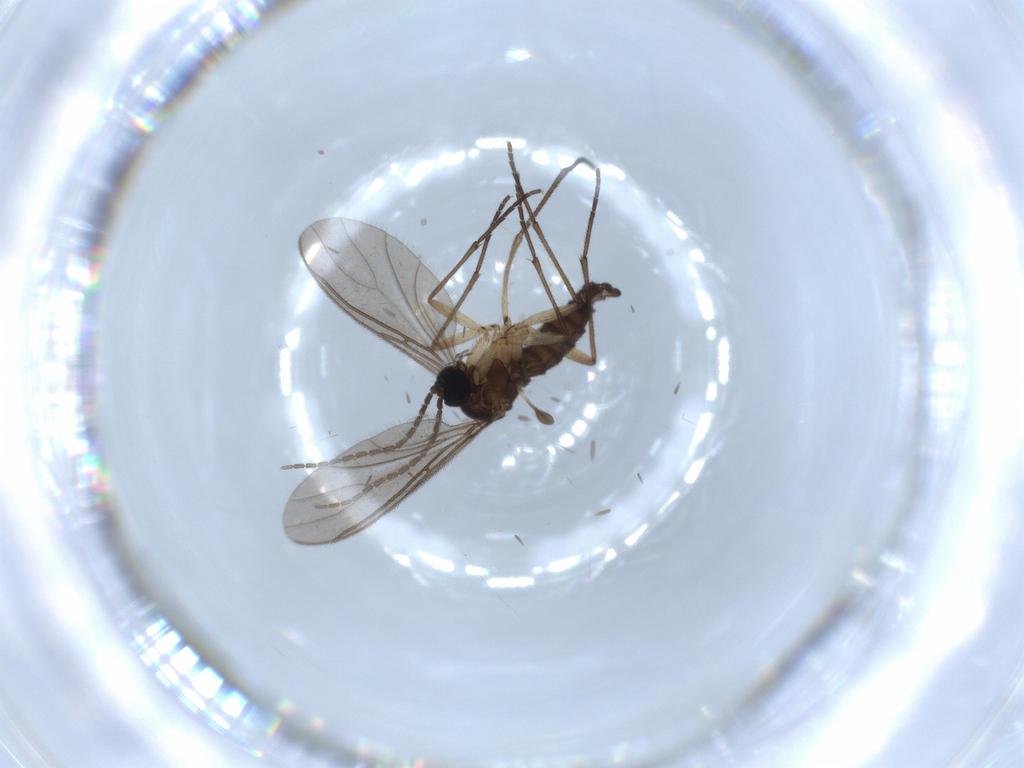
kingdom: Animalia
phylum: Arthropoda
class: Insecta
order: Diptera
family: Sciaridae
